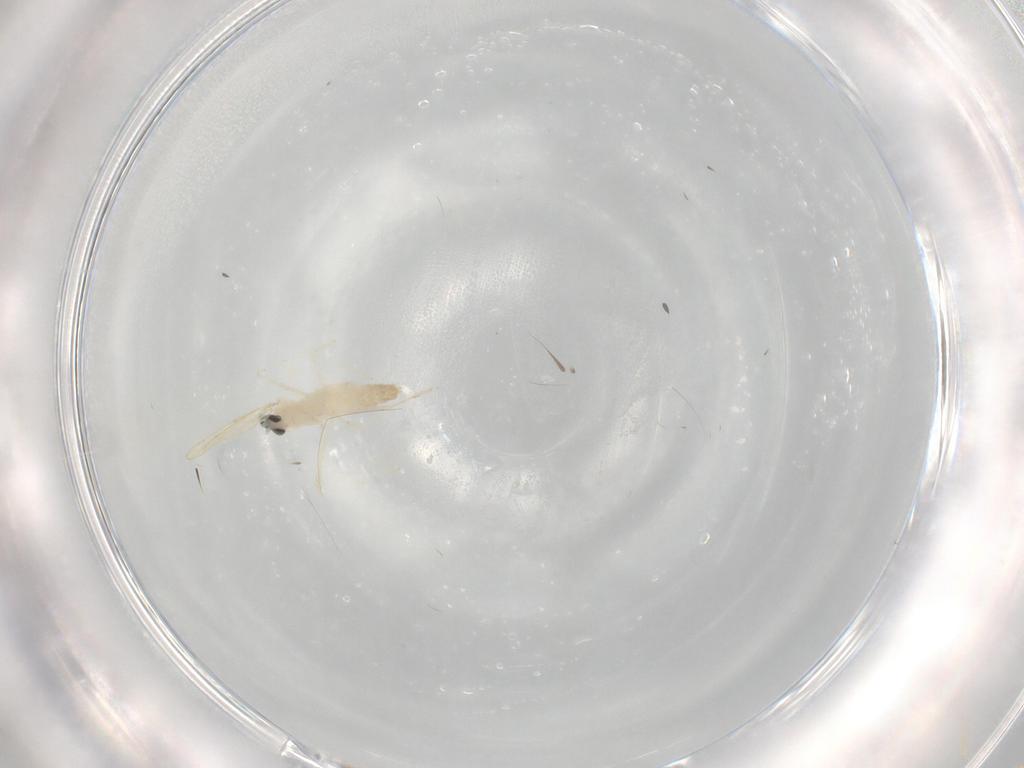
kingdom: Animalia
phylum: Arthropoda
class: Insecta
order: Diptera
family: Cecidomyiidae
